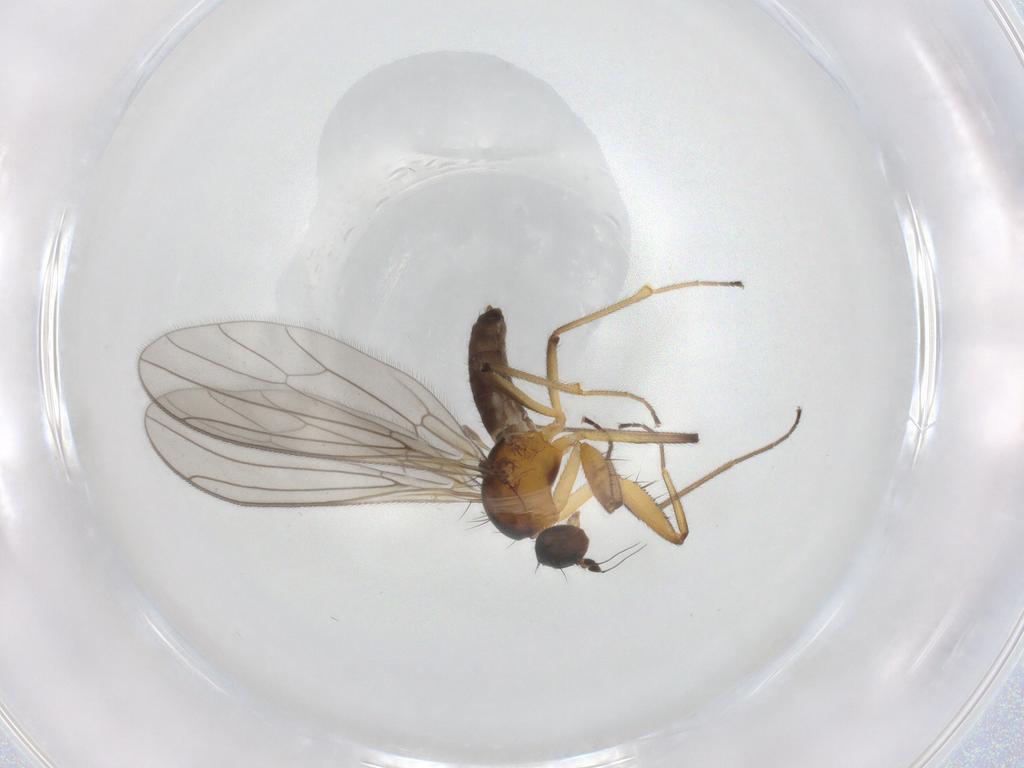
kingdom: Animalia
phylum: Arthropoda
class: Insecta
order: Diptera
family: Empididae
